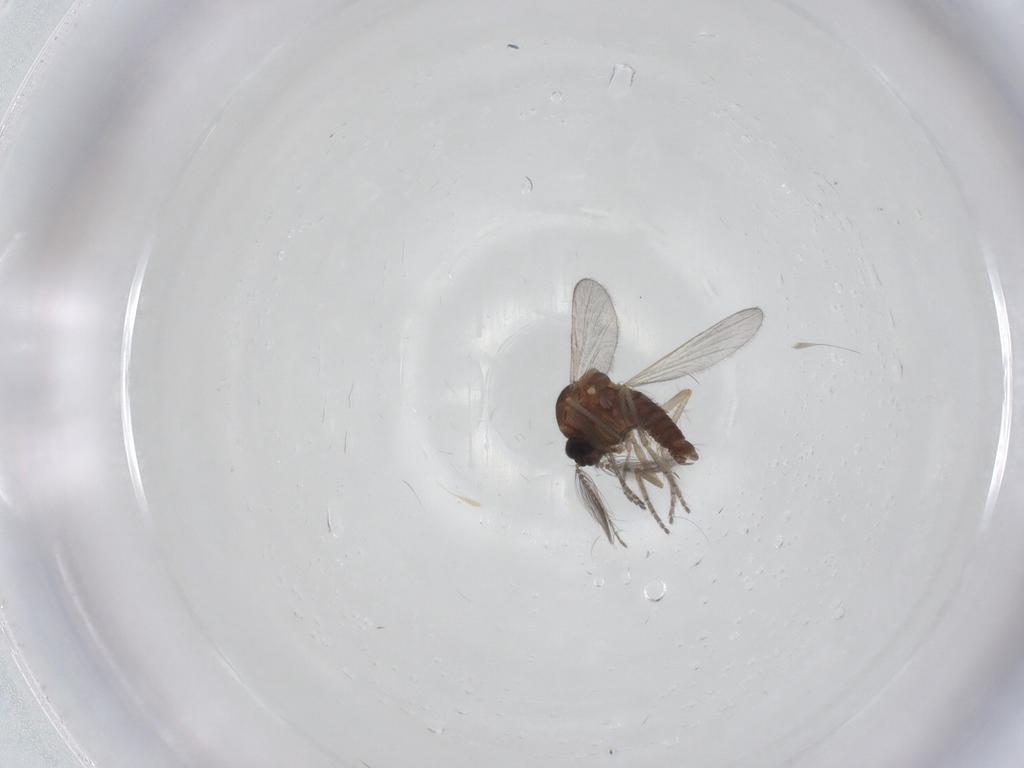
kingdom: Animalia
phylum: Arthropoda
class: Insecta
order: Diptera
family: Ceratopogonidae
